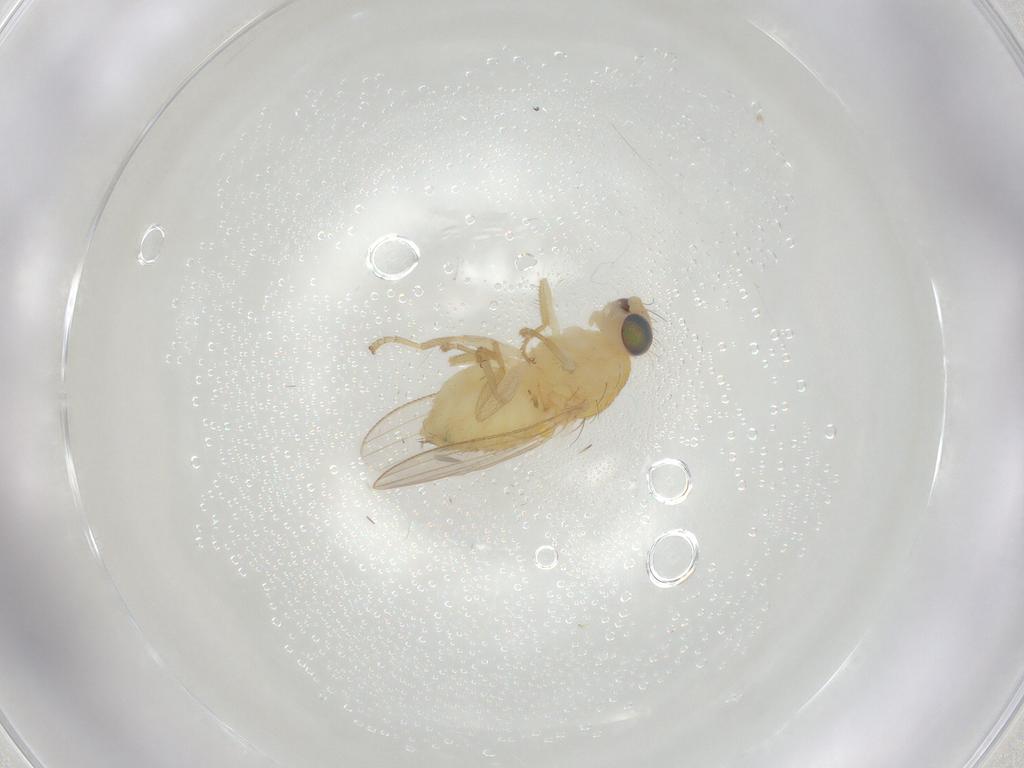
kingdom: Animalia
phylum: Arthropoda
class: Insecta
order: Diptera
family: Chyromyidae
